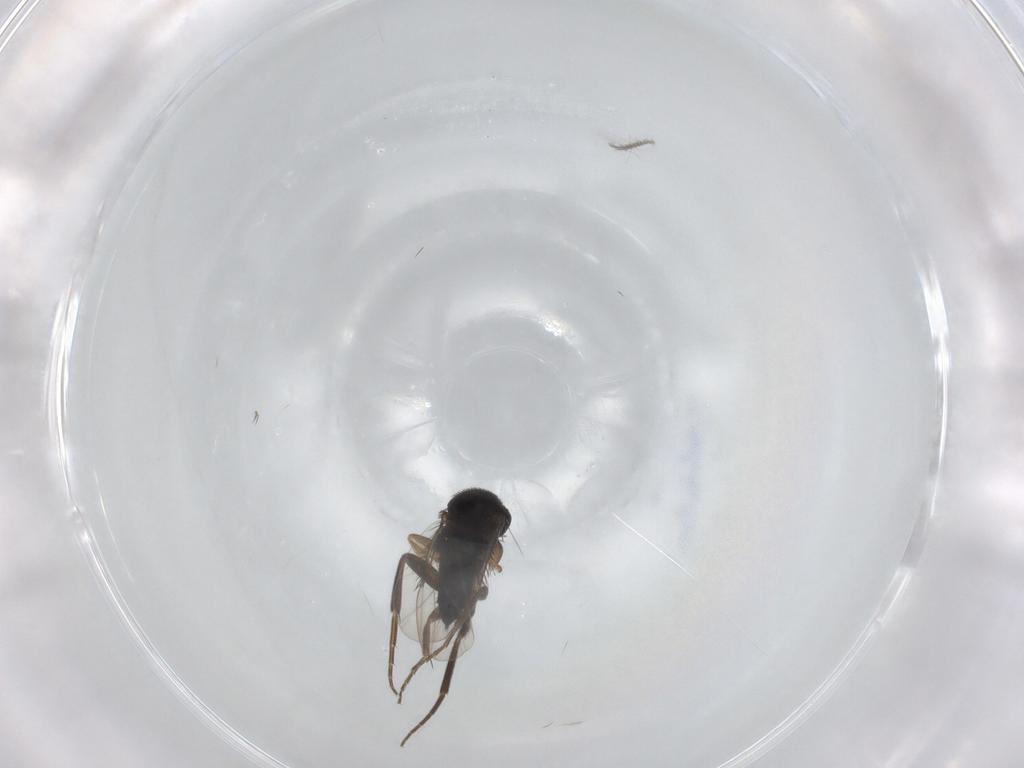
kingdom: Animalia
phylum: Arthropoda
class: Insecta
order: Diptera
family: Phoridae
